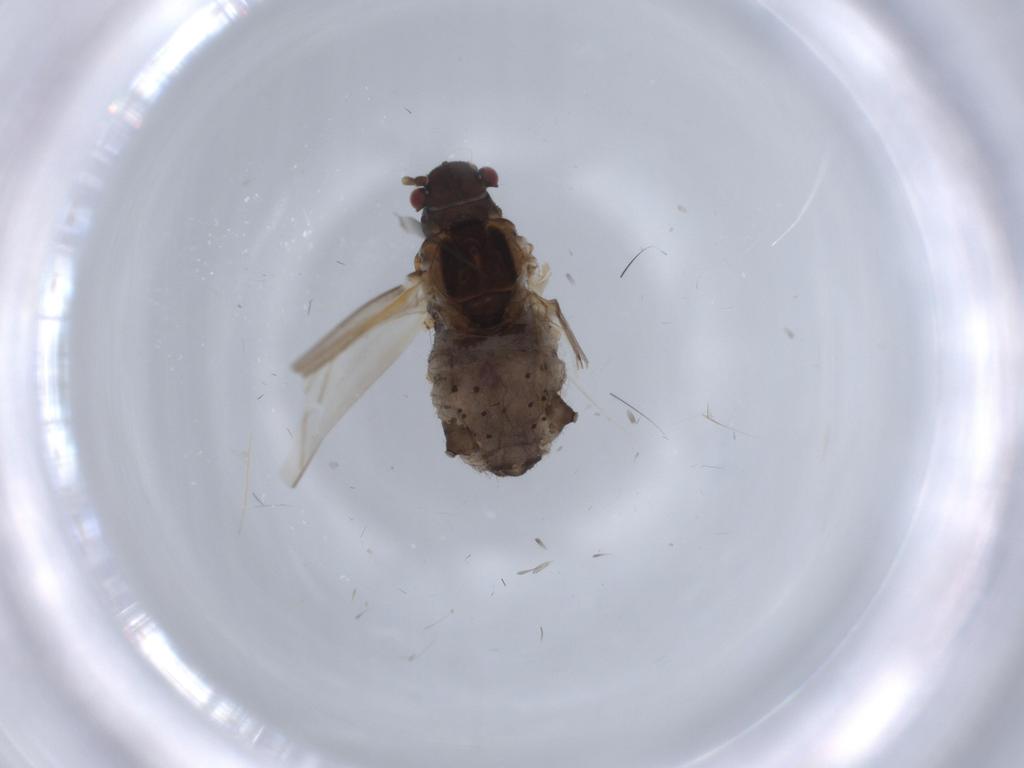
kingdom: Animalia
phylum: Arthropoda
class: Insecta
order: Hemiptera
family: Aphididae
